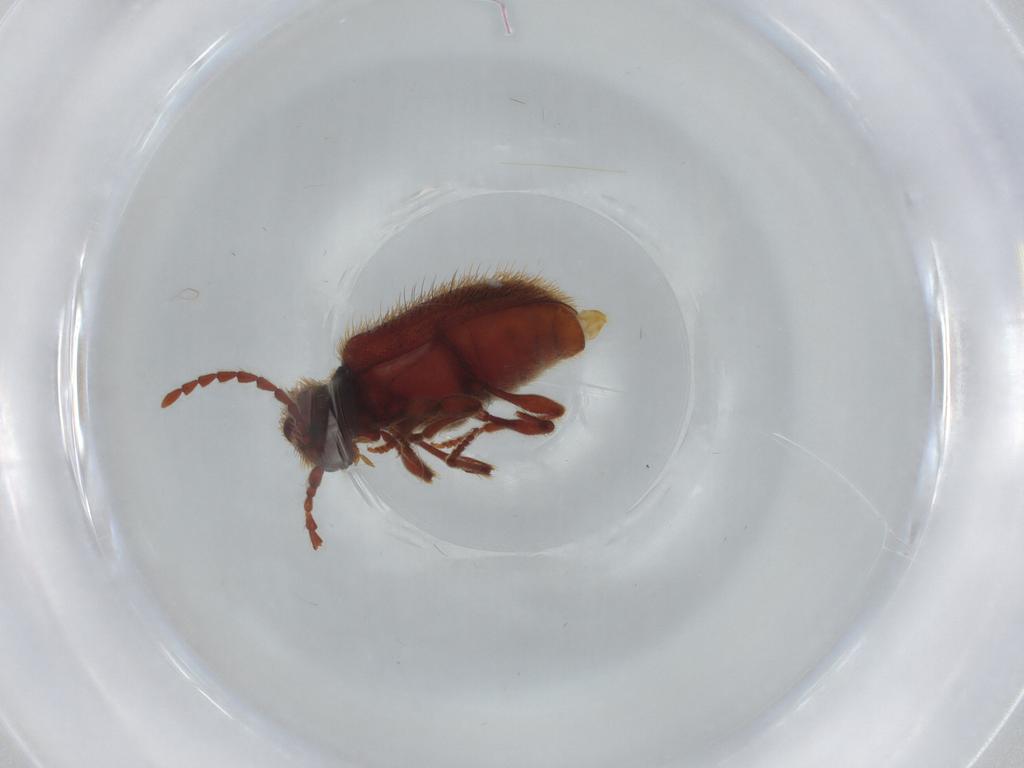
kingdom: Animalia
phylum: Arthropoda
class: Insecta
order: Coleoptera
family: Ptinidae
